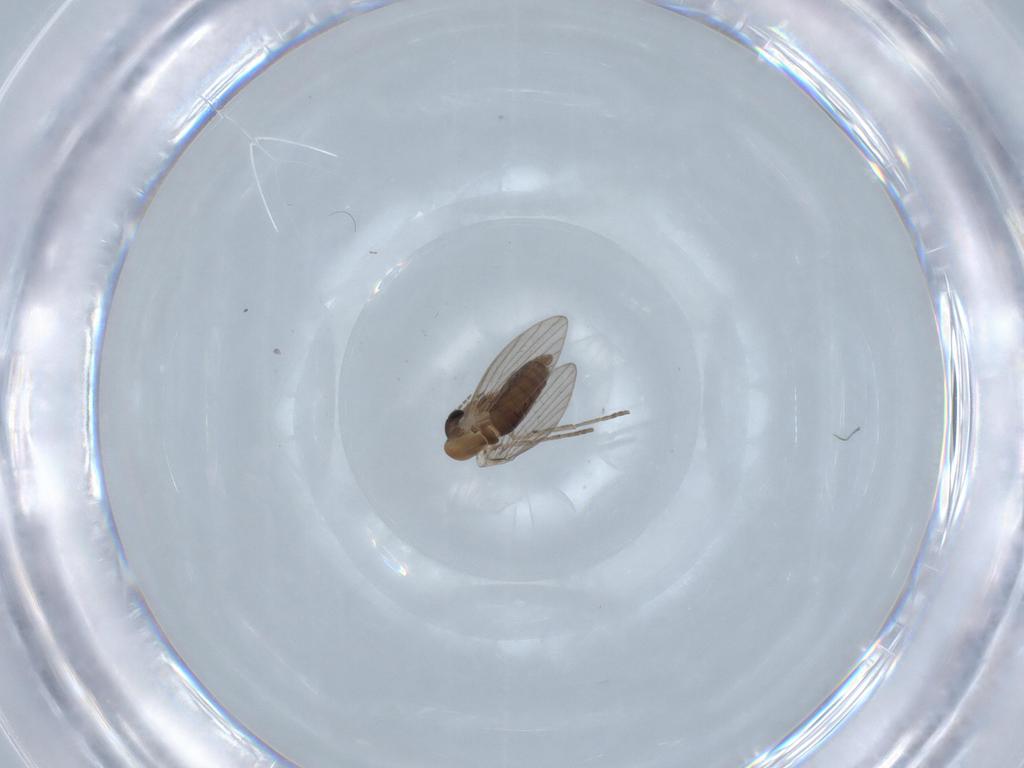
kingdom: Animalia
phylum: Arthropoda
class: Insecta
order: Diptera
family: Chironomidae
